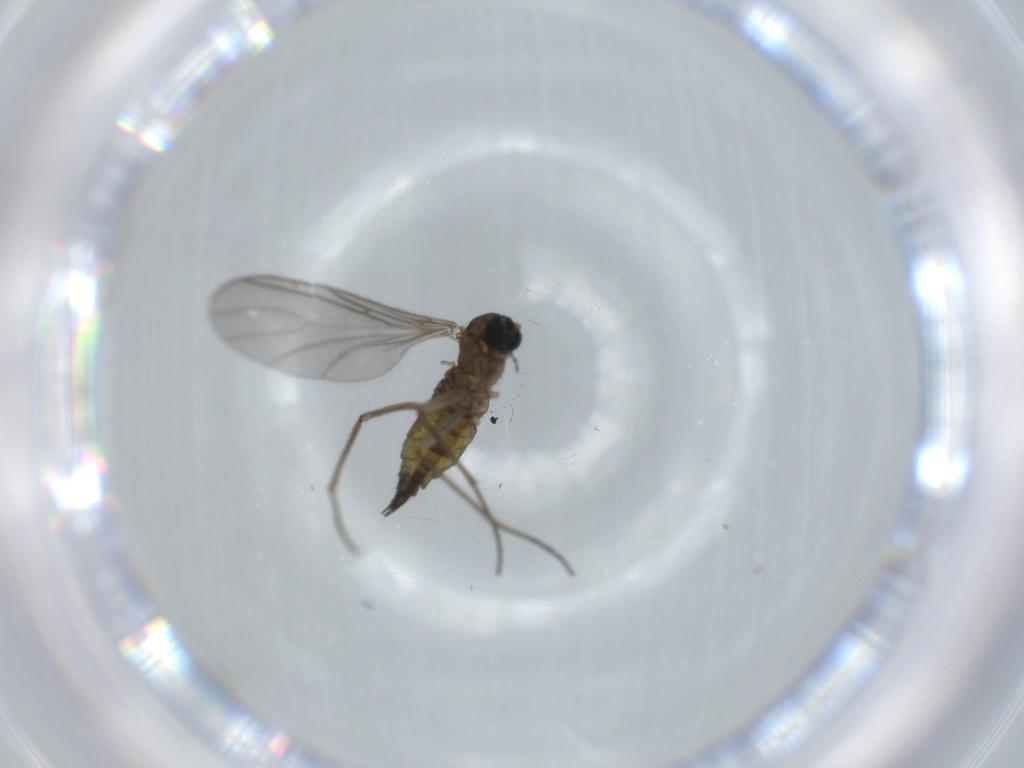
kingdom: Animalia
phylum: Arthropoda
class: Insecta
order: Diptera
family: Sciaridae
